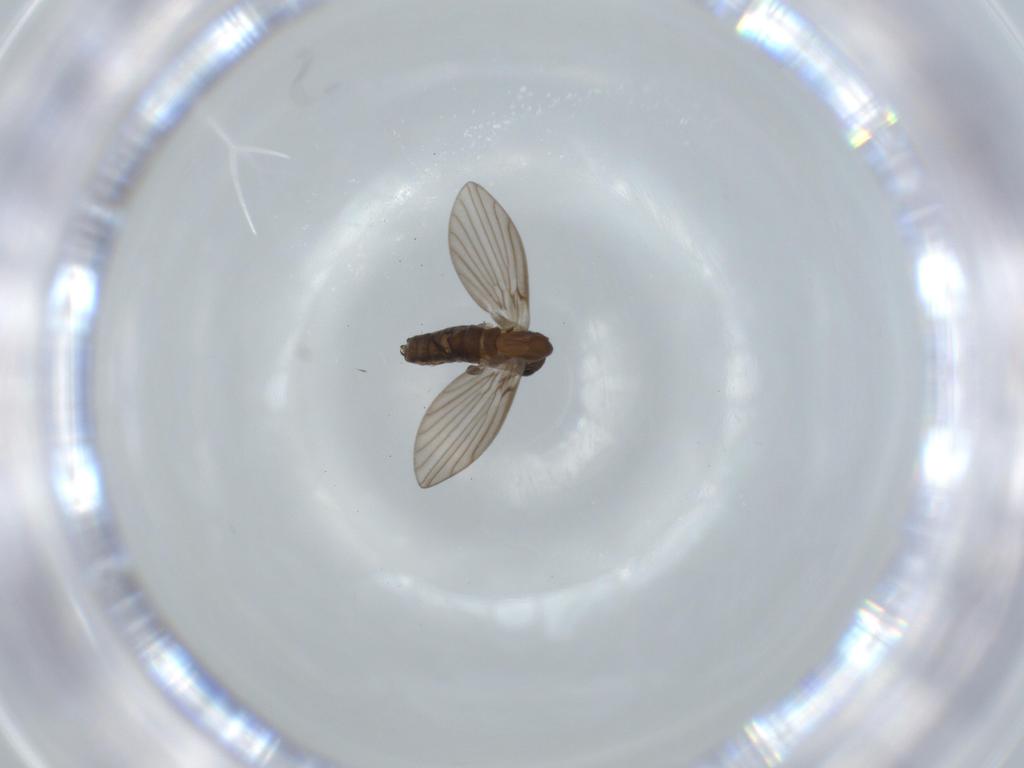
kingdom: Animalia
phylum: Arthropoda
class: Insecta
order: Diptera
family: Psychodidae
